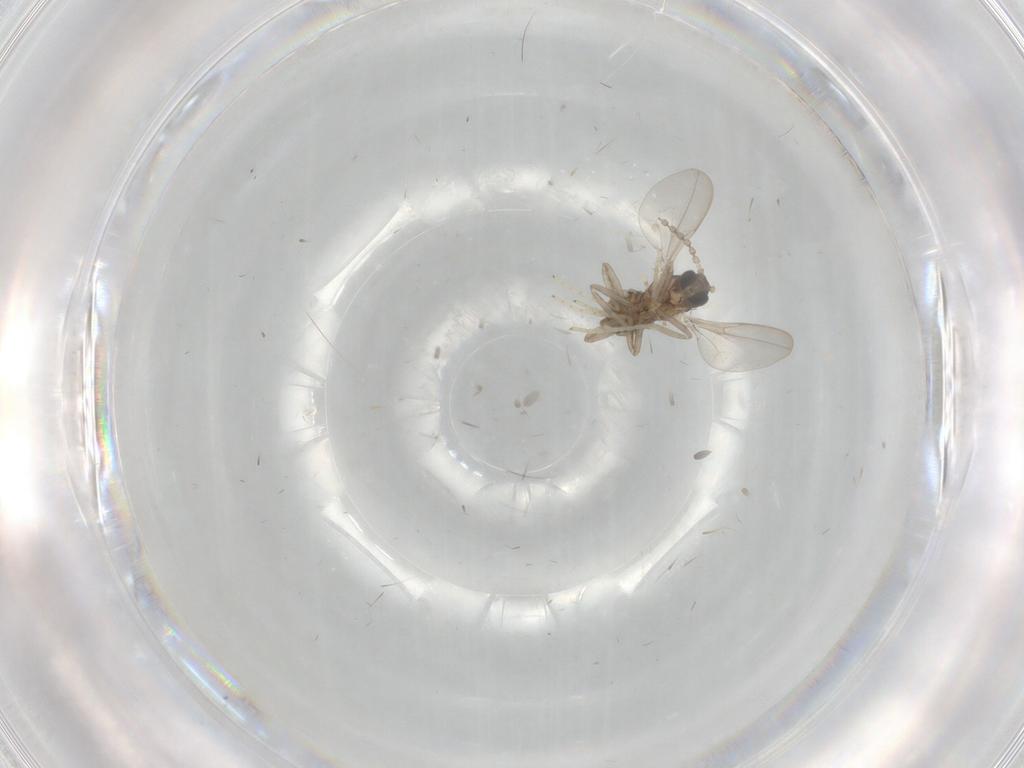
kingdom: Animalia
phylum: Arthropoda
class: Insecta
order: Diptera
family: Cecidomyiidae
